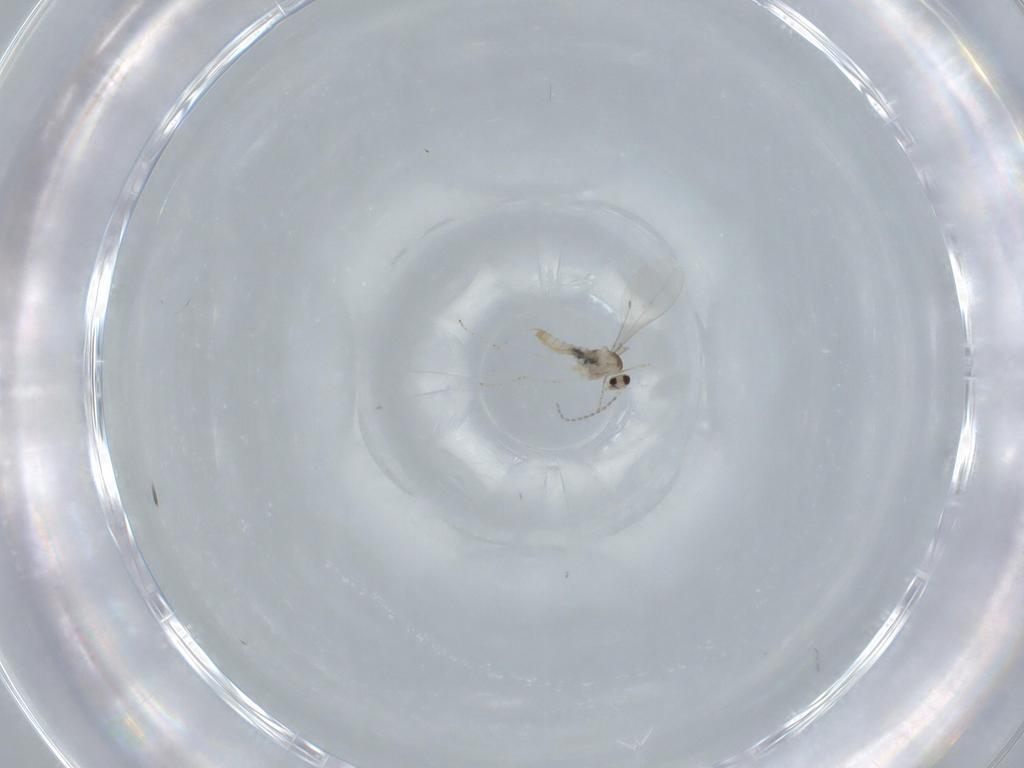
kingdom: Animalia
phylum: Arthropoda
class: Insecta
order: Diptera
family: Cecidomyiidae
